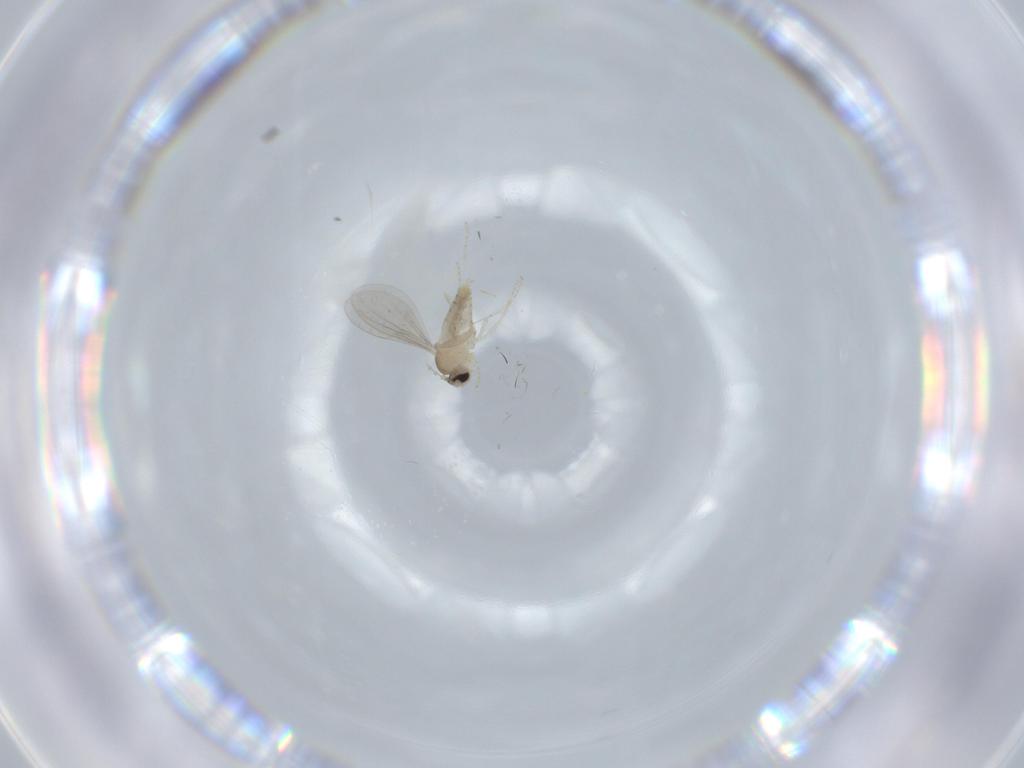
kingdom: Animalia
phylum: Arthropoda
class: Insecta
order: Diptera
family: Cecidomyiidae
